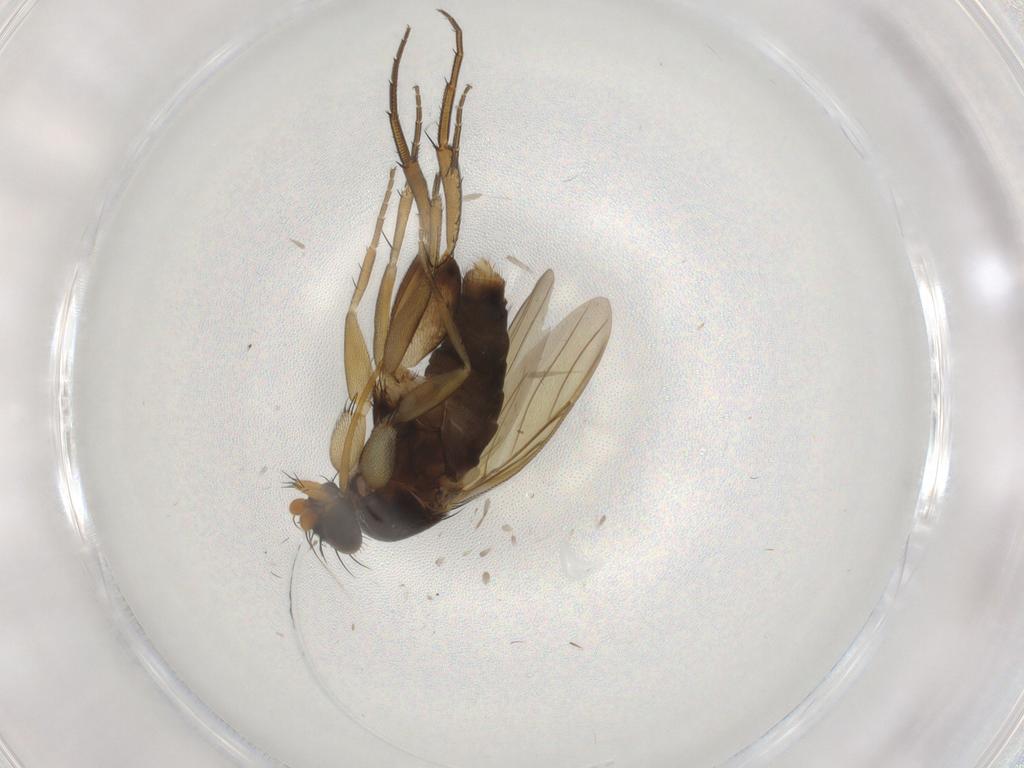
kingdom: Animalia
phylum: Arthropoda
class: Insecta
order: Diptera
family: Phoridae
